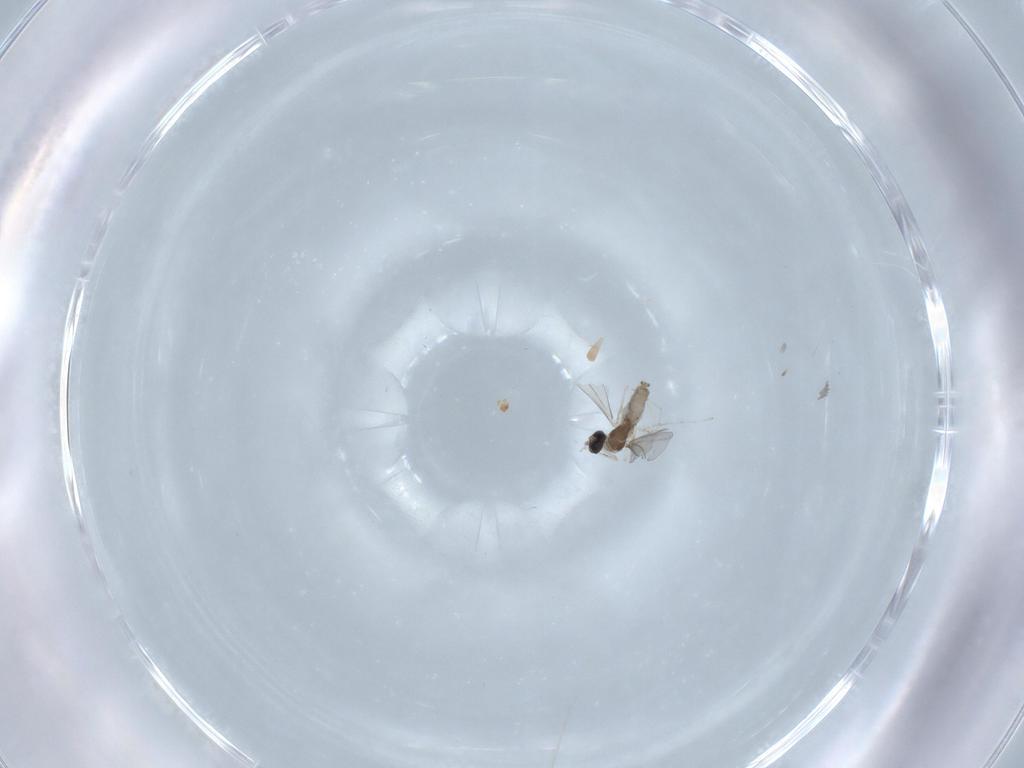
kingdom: Animalia
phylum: Arthropoda
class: Insecta
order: Diptera
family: Cecidomyiidae
